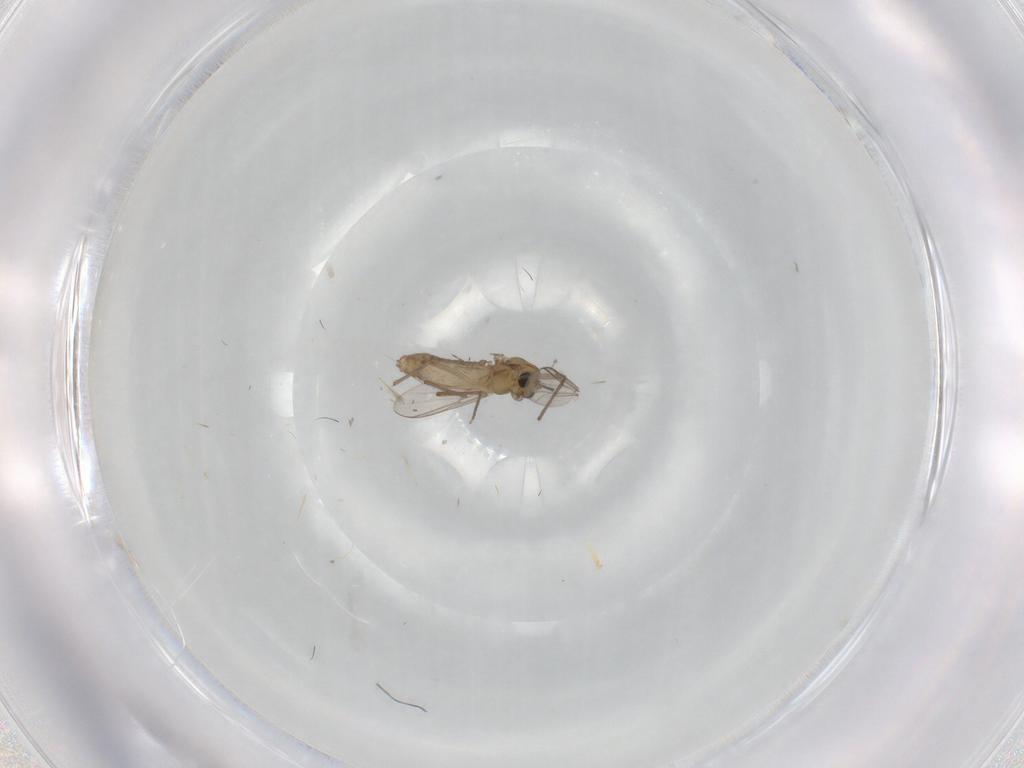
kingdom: Animalia
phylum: Arthropoda
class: Insecta
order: Diptera
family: Chironomidae
